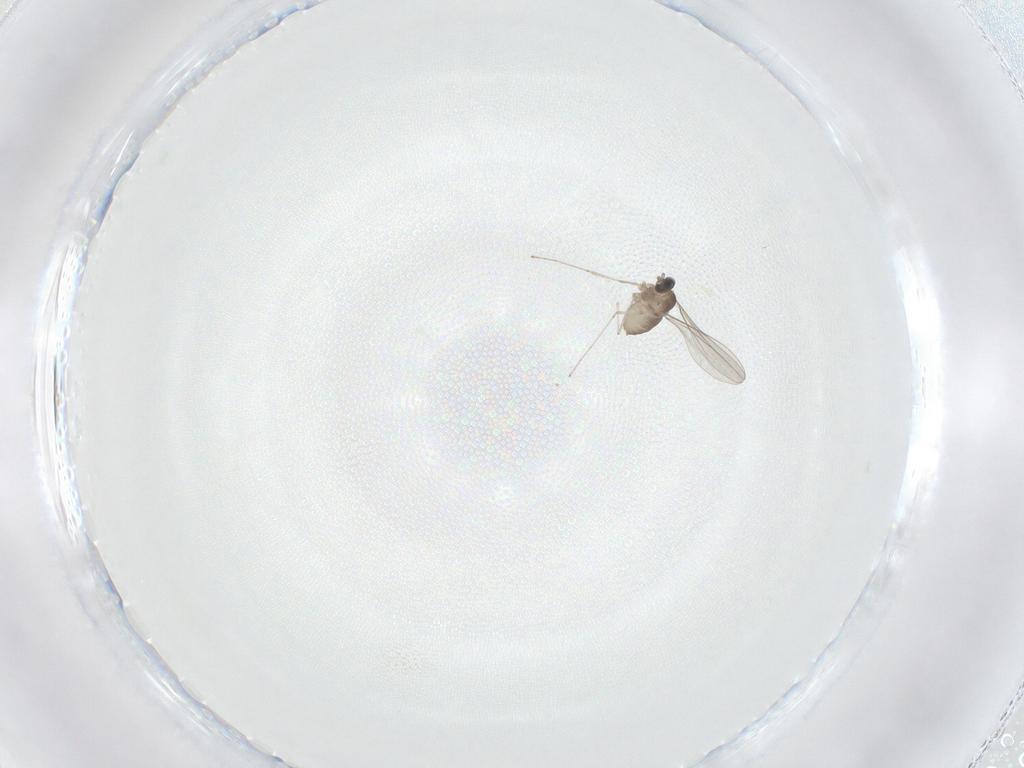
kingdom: Animalia
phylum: Arthropoda
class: Insecta
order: Diptera
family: Cecidomyiidae
